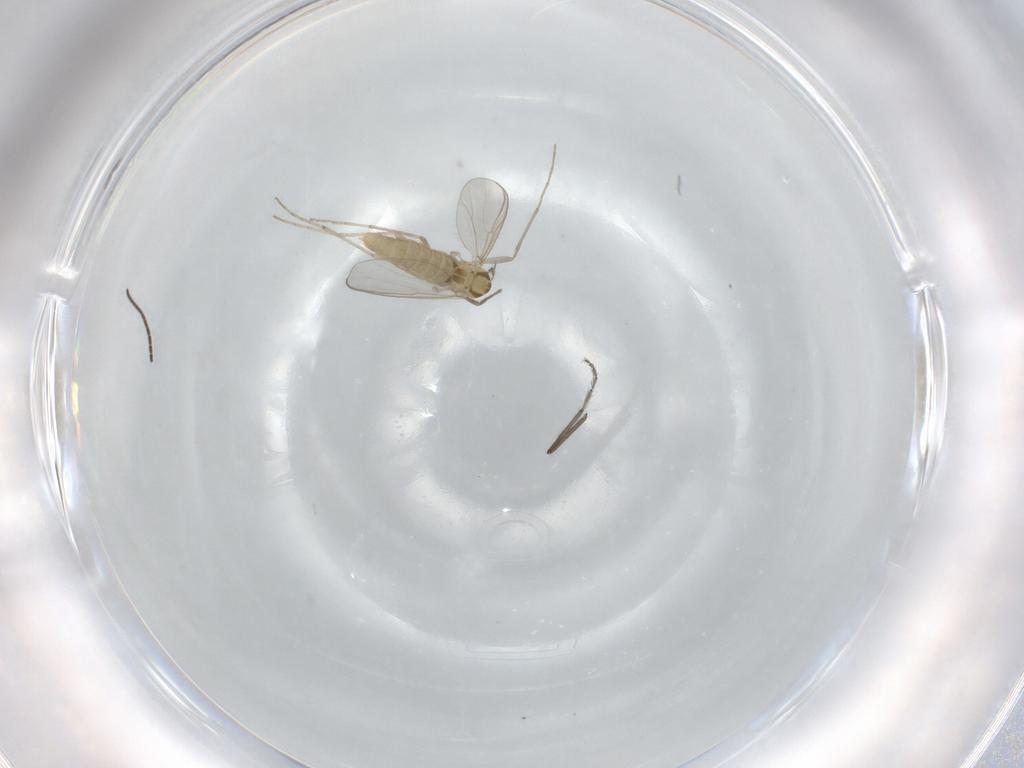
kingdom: Animalia
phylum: Arthropoda
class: Insecta
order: Diptera
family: Chironomidae
